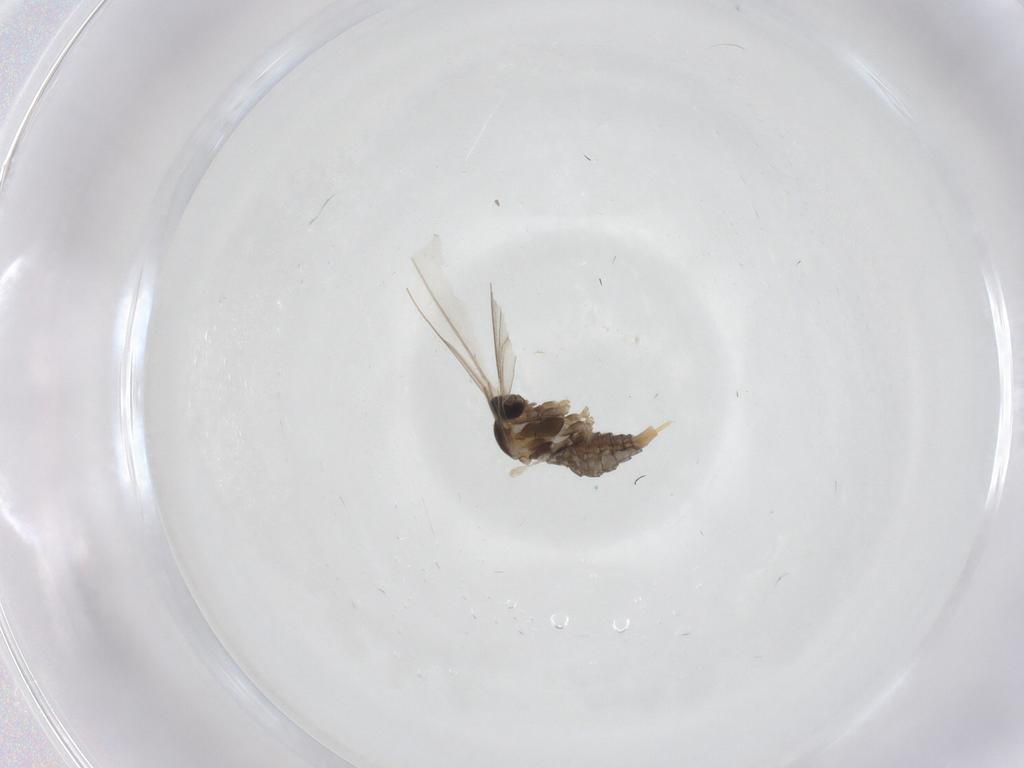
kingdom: Animalia
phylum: Arthropoda
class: Insecta
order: Diptera
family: Cecidomyiidae
